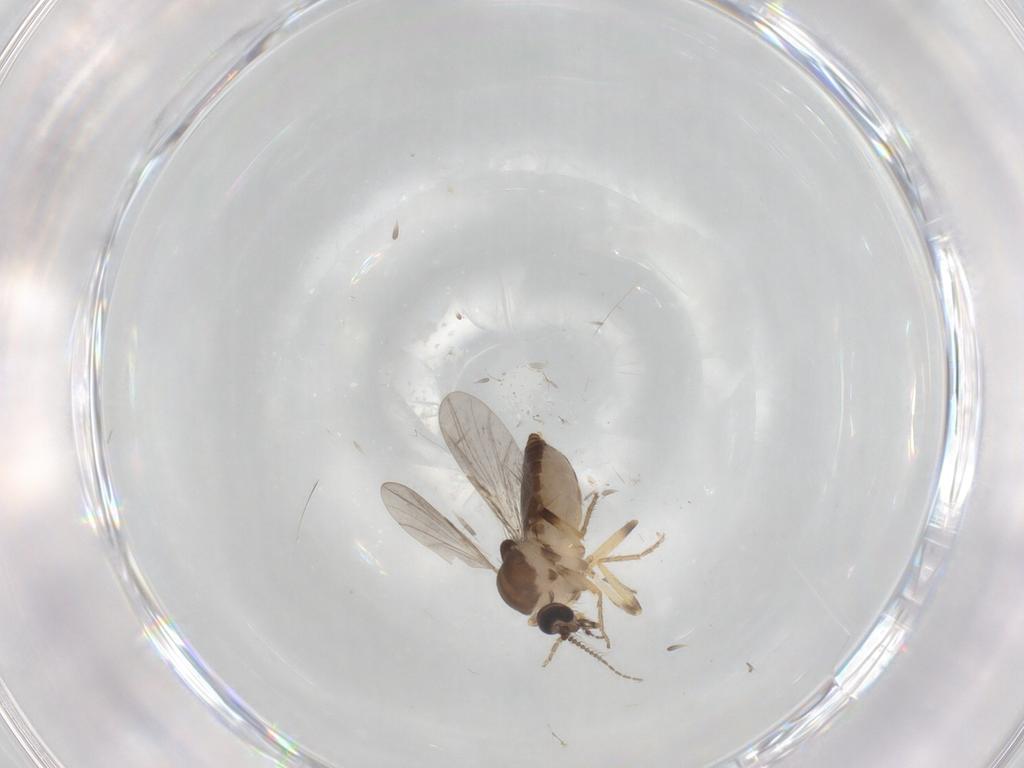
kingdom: Animalia
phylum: Arthropoda
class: Insecta
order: Diptera
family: Ceratopogonidae
